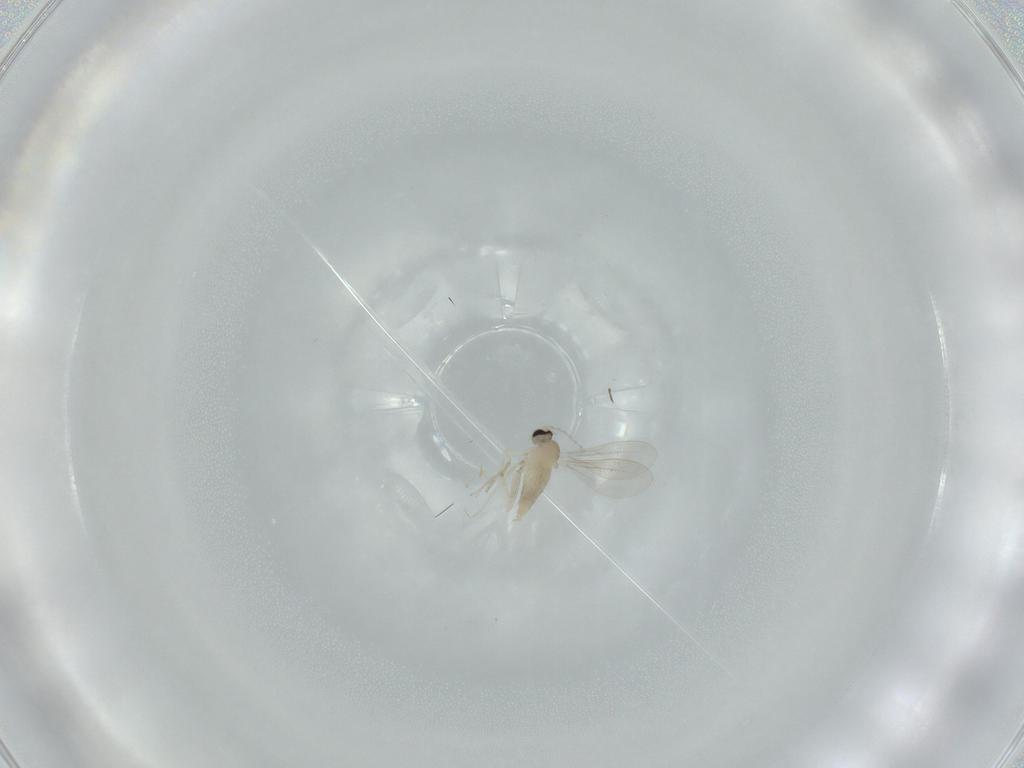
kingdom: Animalia
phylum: Arthropoda
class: Insecta
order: Diptera
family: Cecidomyiidae
